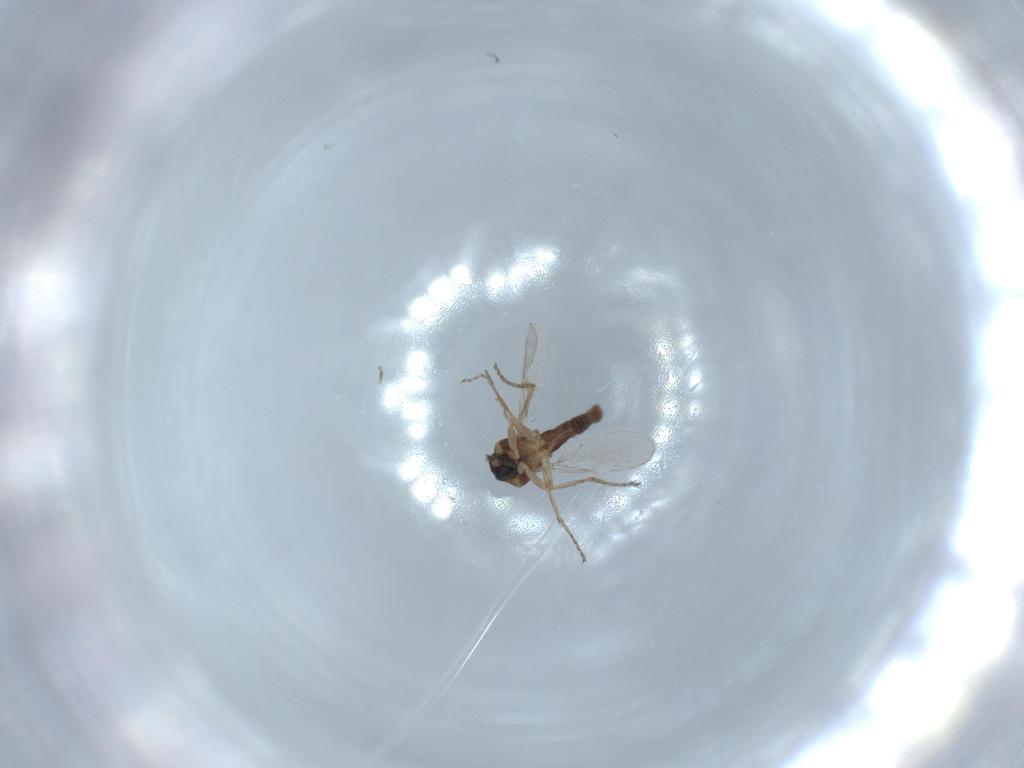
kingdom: Animalia
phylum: Arthropoda
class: Insecta
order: Diptera
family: Ceratopogonidae
